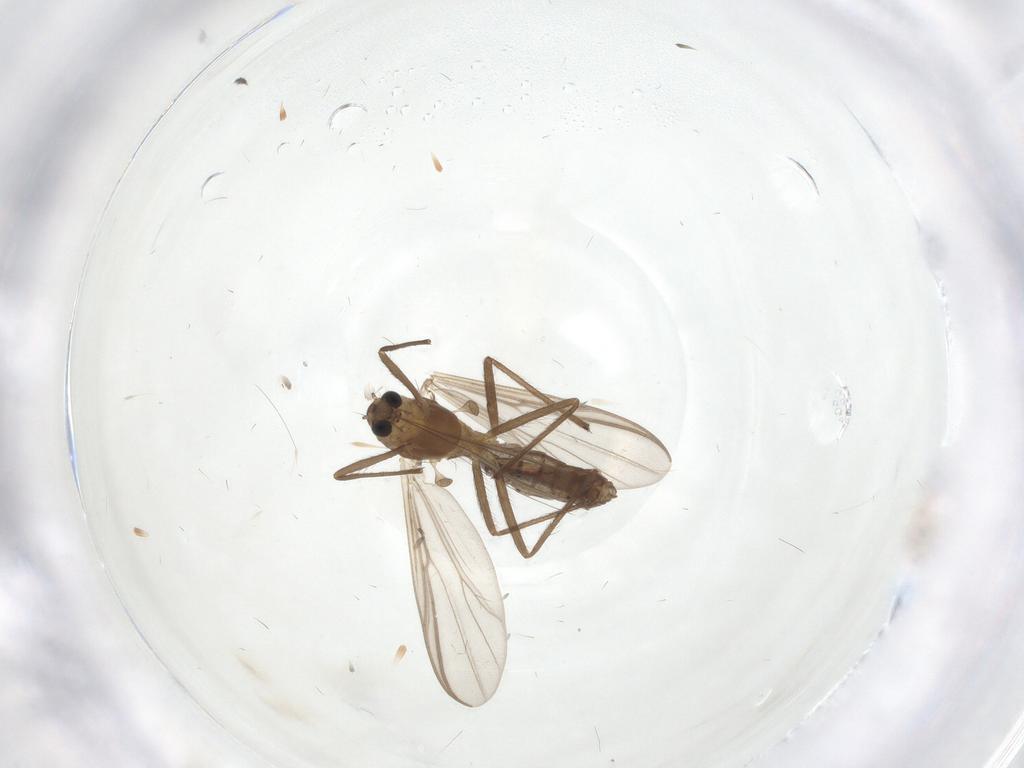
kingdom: Animalia
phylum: Arthropoda
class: Insecta
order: Diptera
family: Chironomidae
